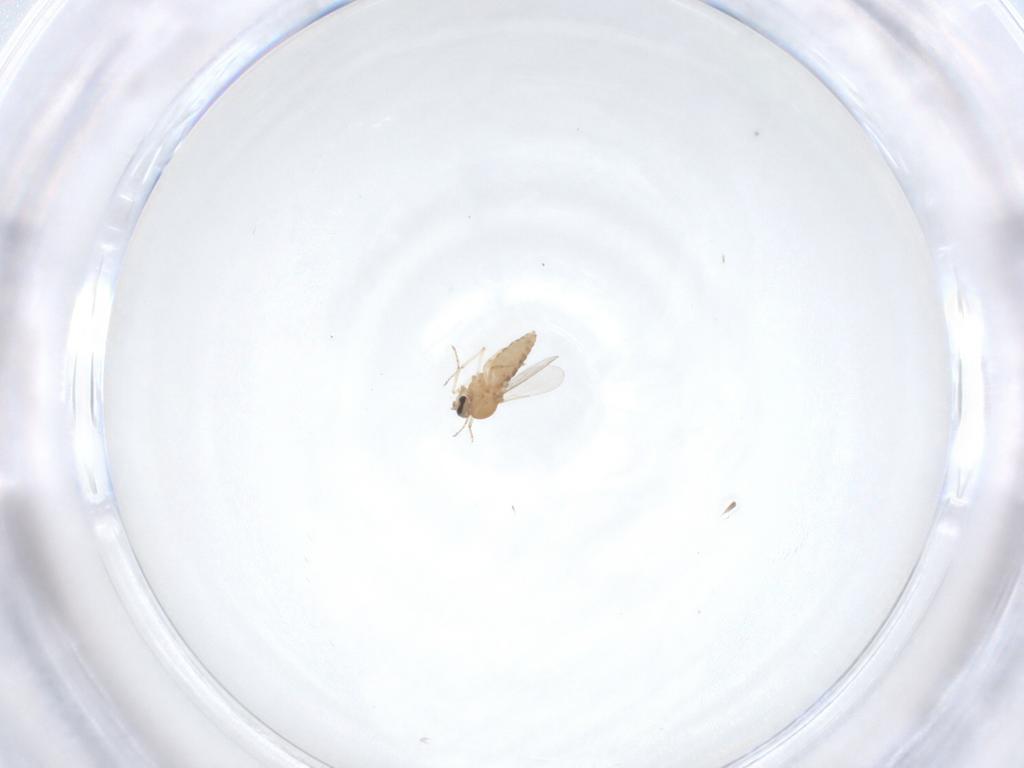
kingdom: Animalia
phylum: Arthropoda
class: Insecta
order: Diptera
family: Ceratopogonidae
